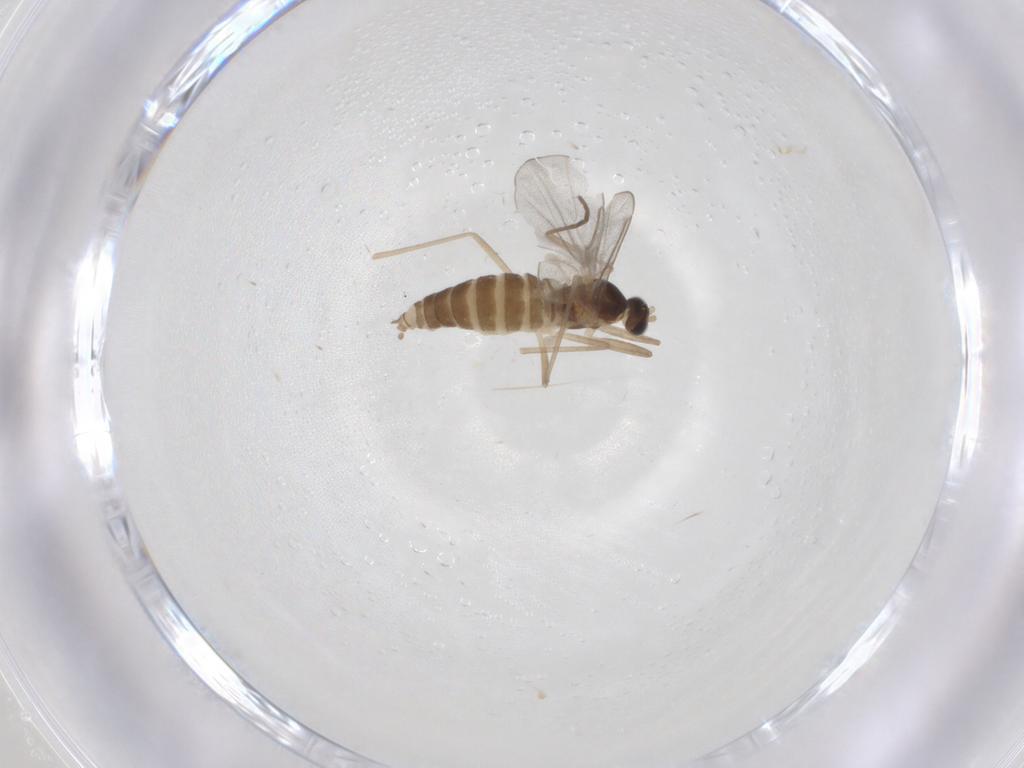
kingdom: Animalia
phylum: Arthropoda
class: Insecta
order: Diptera
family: Cecidomyiidae
